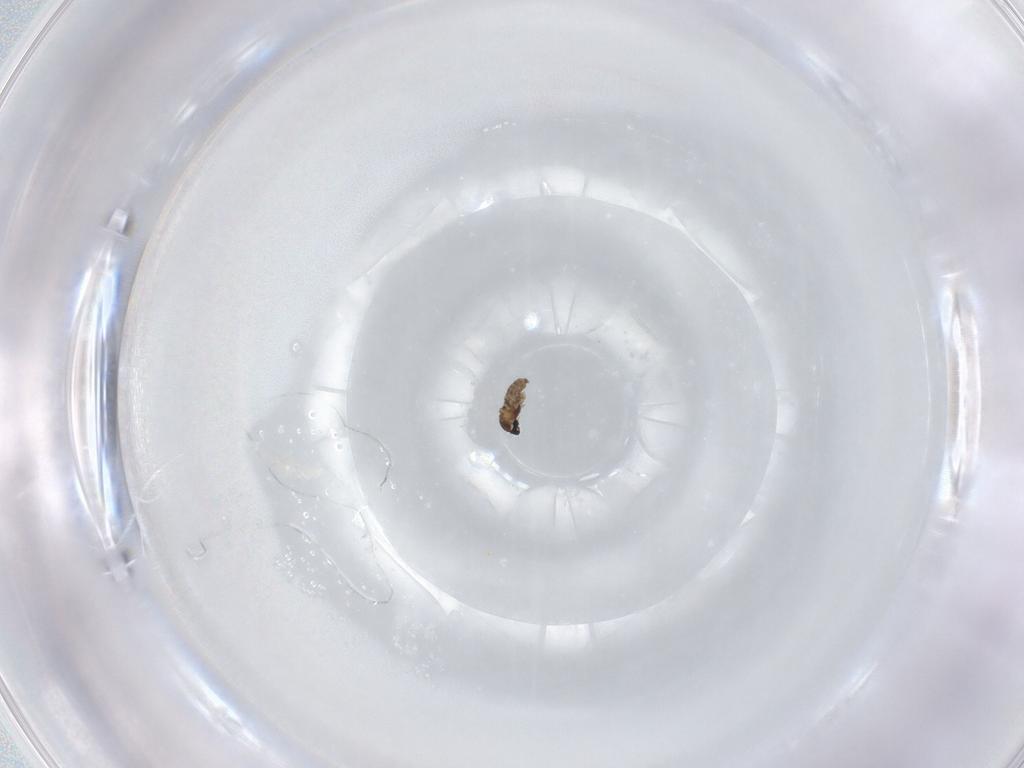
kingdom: Animalia
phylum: Arthropoda
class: Insecta
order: Diptera
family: Cecidomyiidae
